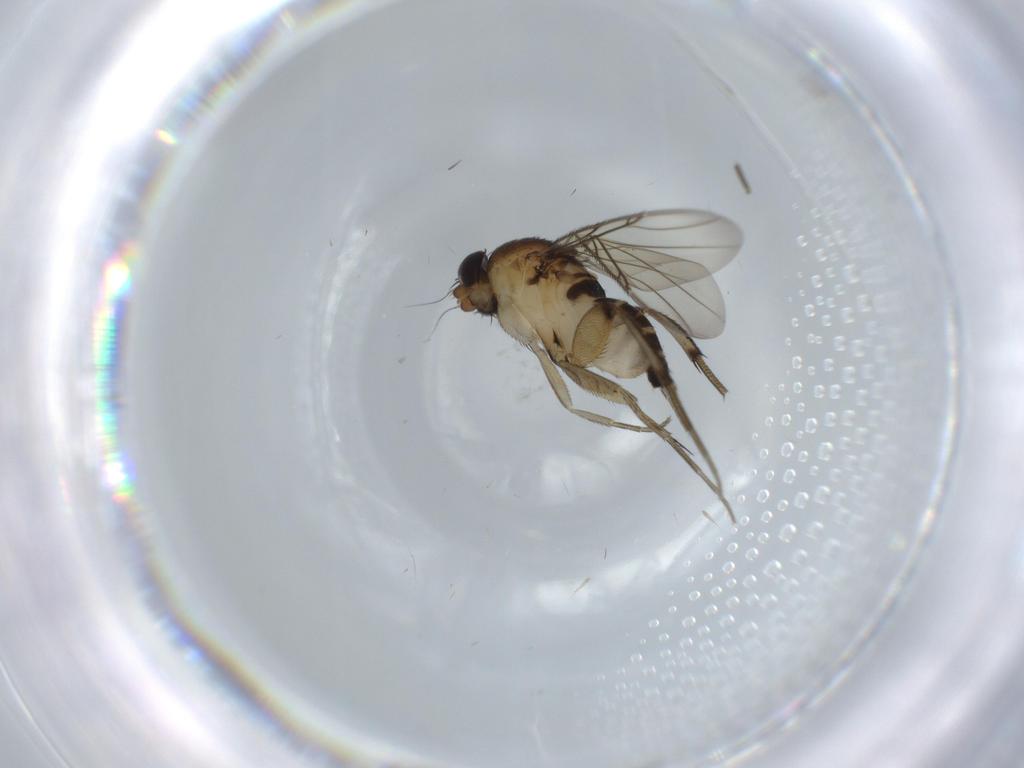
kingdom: Animalia
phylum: Arthropoda
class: Insecta
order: Diptera
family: Phoridae
